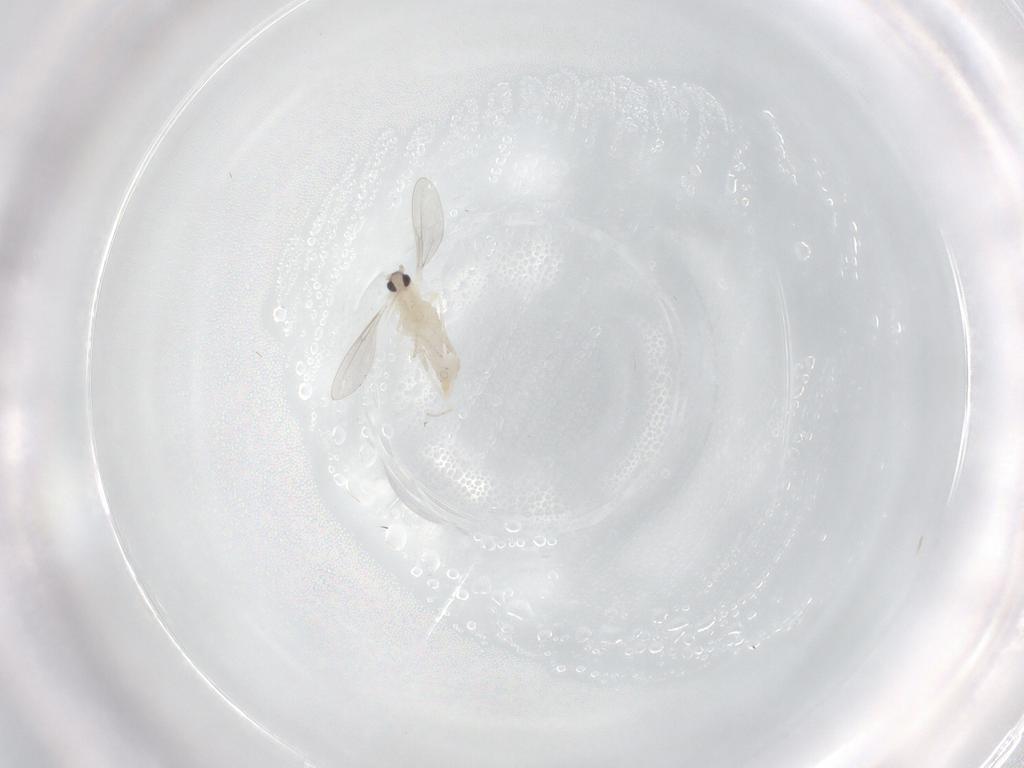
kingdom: Animalia
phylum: Arthropoda
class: Insecta
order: Diptera
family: Cecidomyiidae
